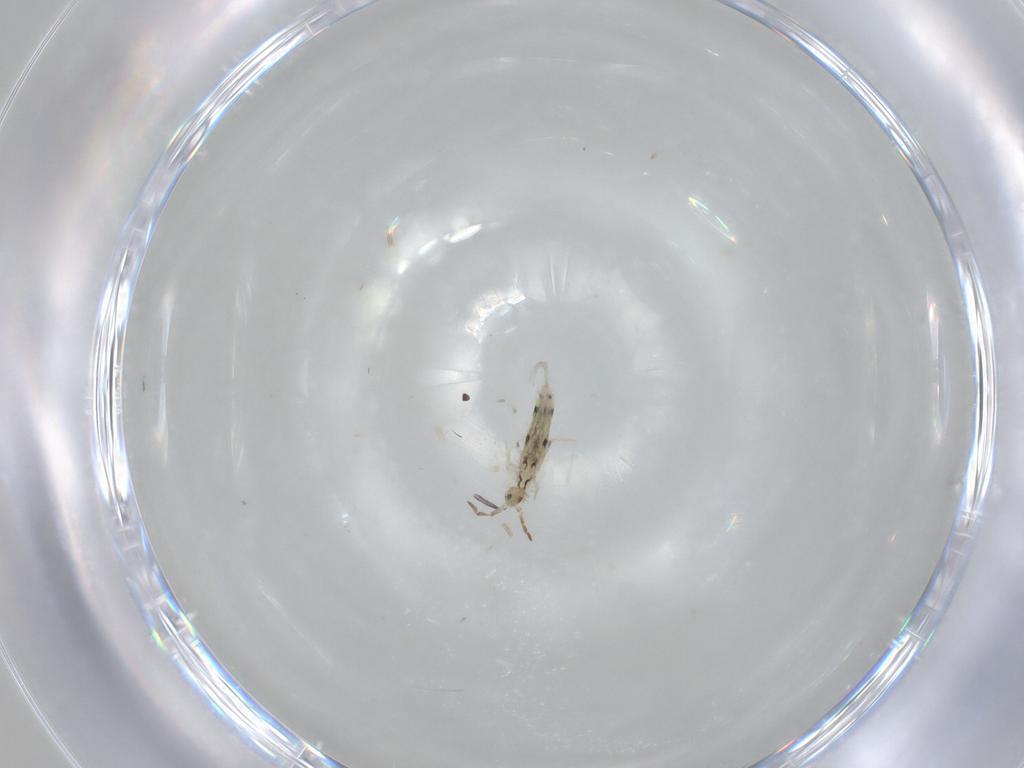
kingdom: Animalia
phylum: Arthropoda
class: Collembola
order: Entomobryomorpha
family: Entomobryidae
